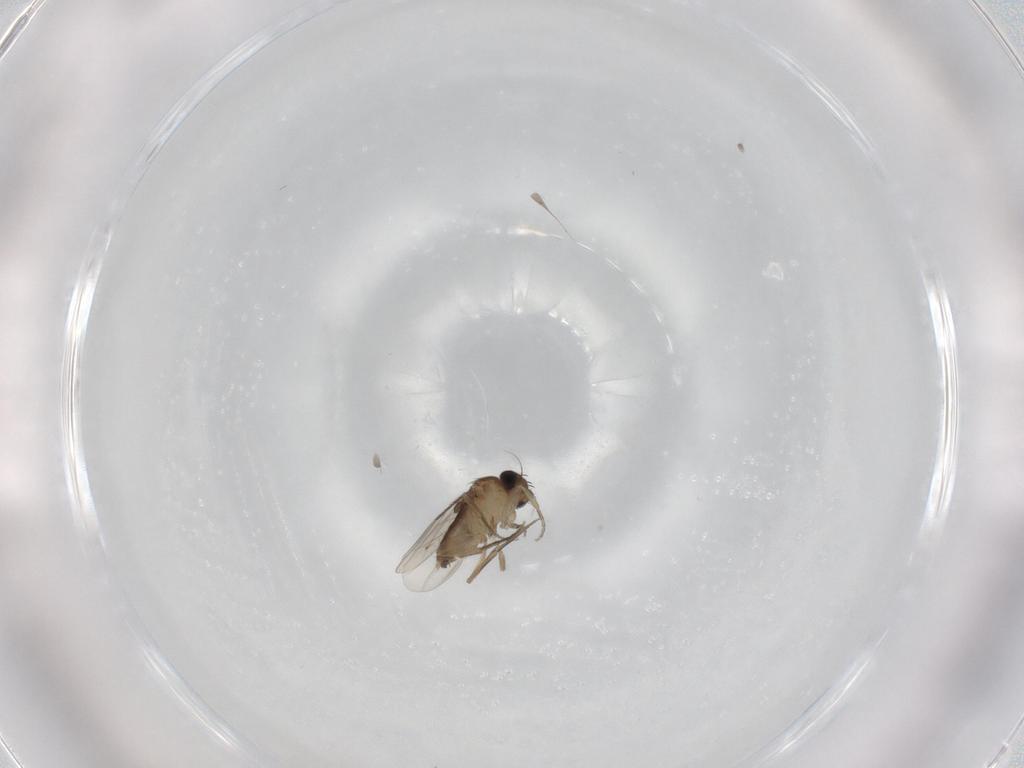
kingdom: Animalia
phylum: Arthropoda
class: Insecta
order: Diptera
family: Phoridae
